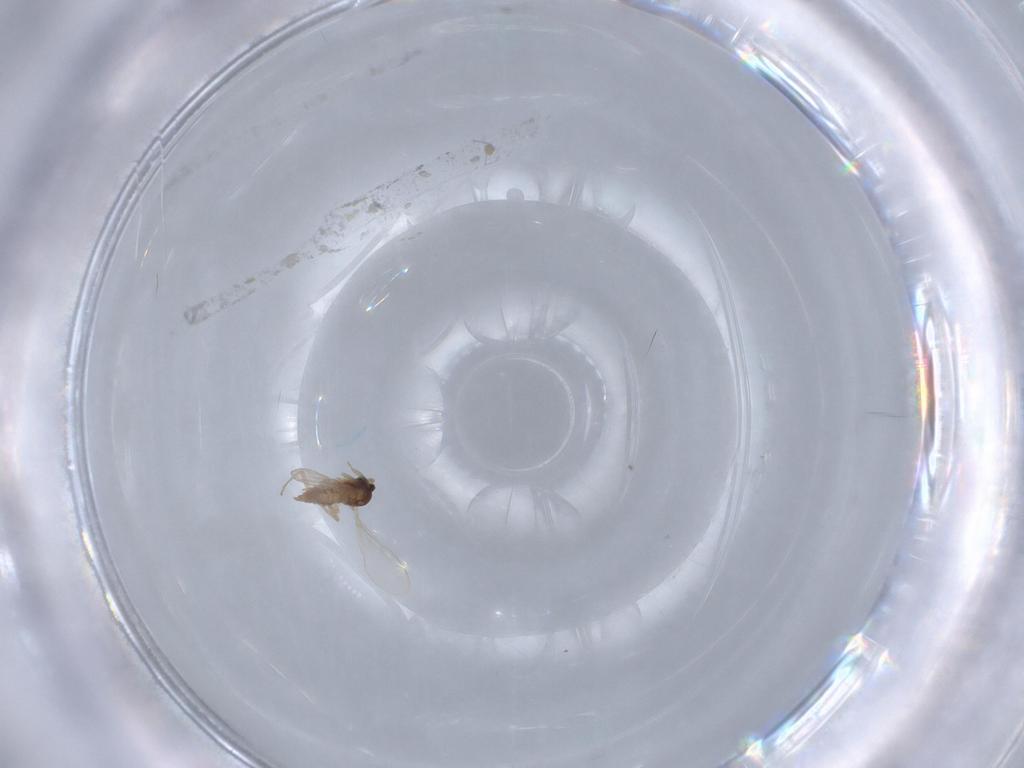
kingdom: Animalia
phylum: Arthropoda
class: Insecta
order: Diptera
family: Cecidomyiidae
